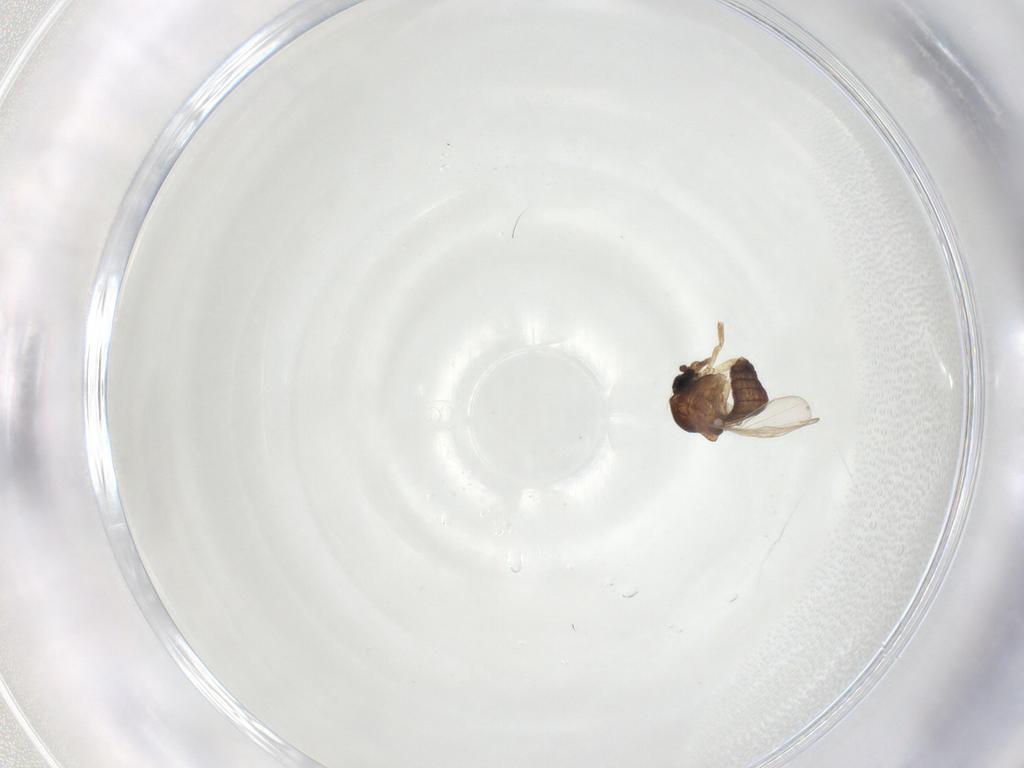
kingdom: Animalia
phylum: Arthropoda
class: Insecta
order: Diptera
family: Ceratopogonidae
